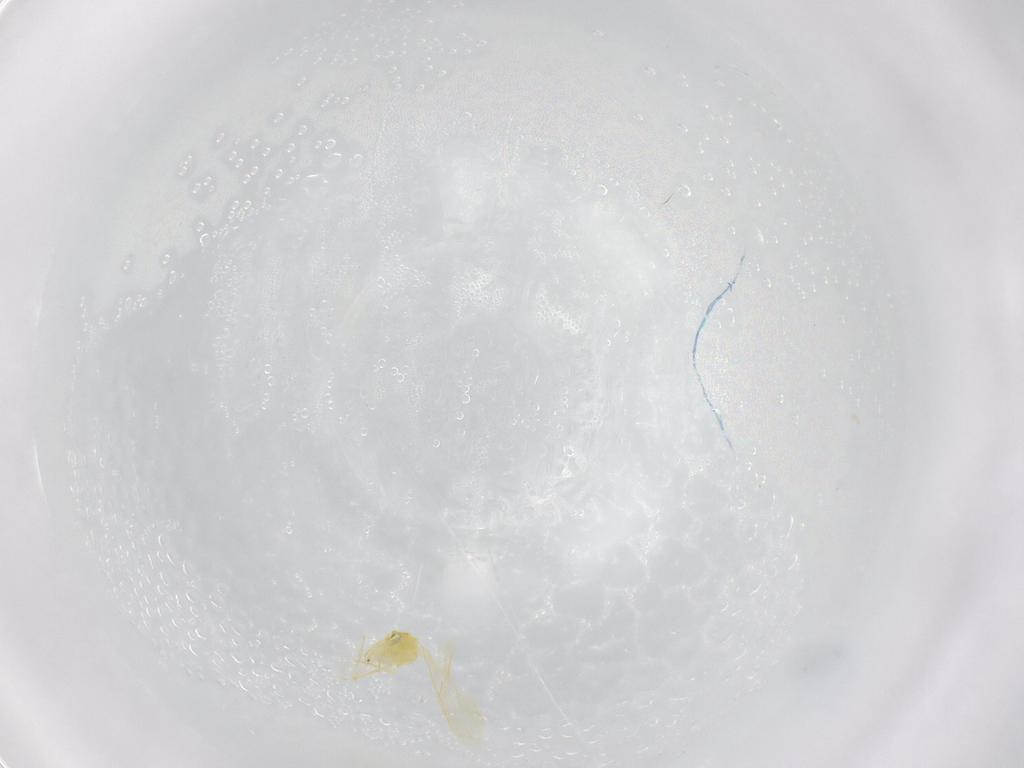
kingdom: Animalia
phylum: Arthropoda
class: Insecta
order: Hemiptera
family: Aleyrodidae
